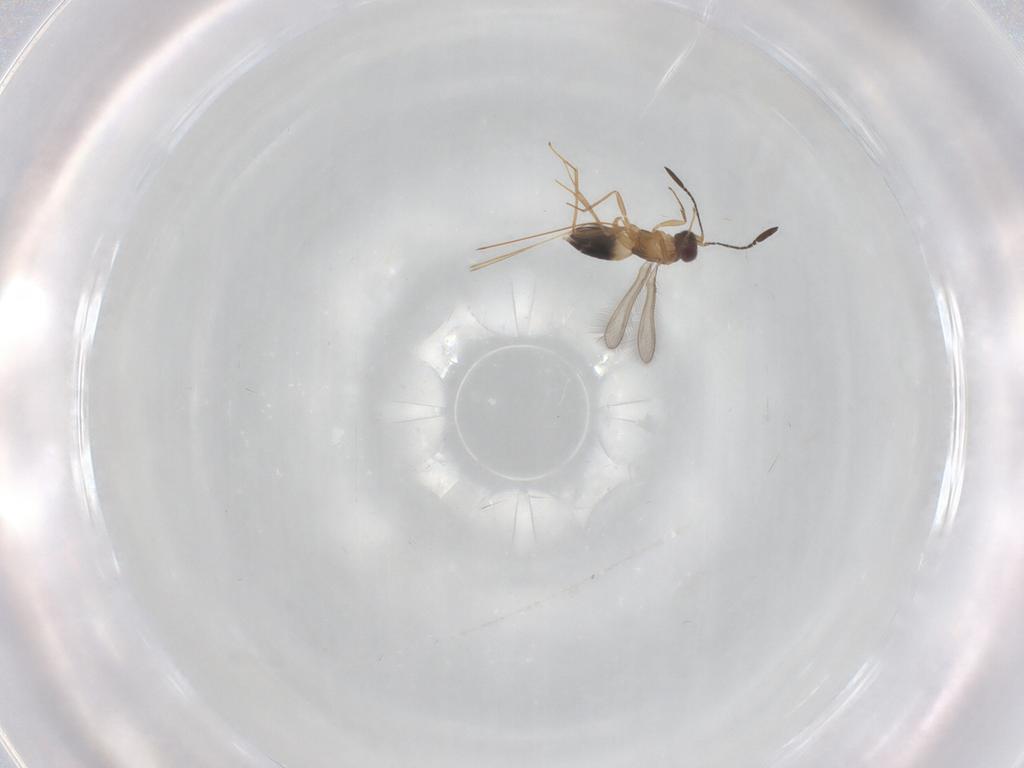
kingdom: Animalia
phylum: Arthropoda
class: Insecta
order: Hymenoptera
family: Mymaridae
